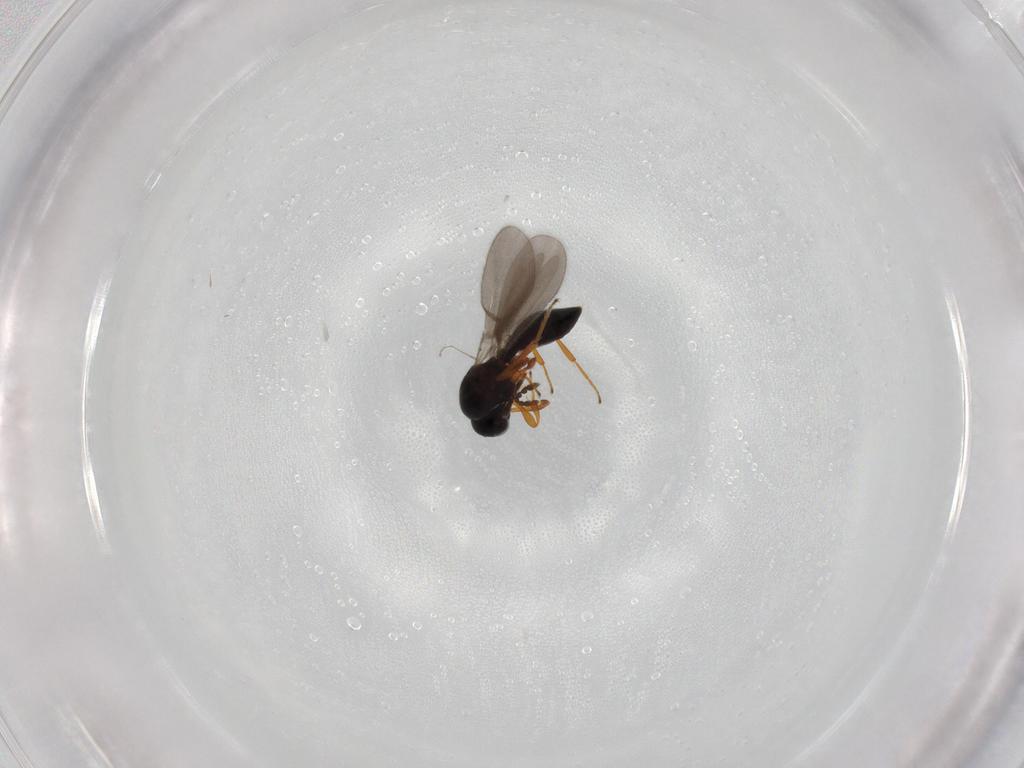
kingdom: Animalia
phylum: Arthropoda
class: Insecta
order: Hymenoptera
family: Platygastridae
